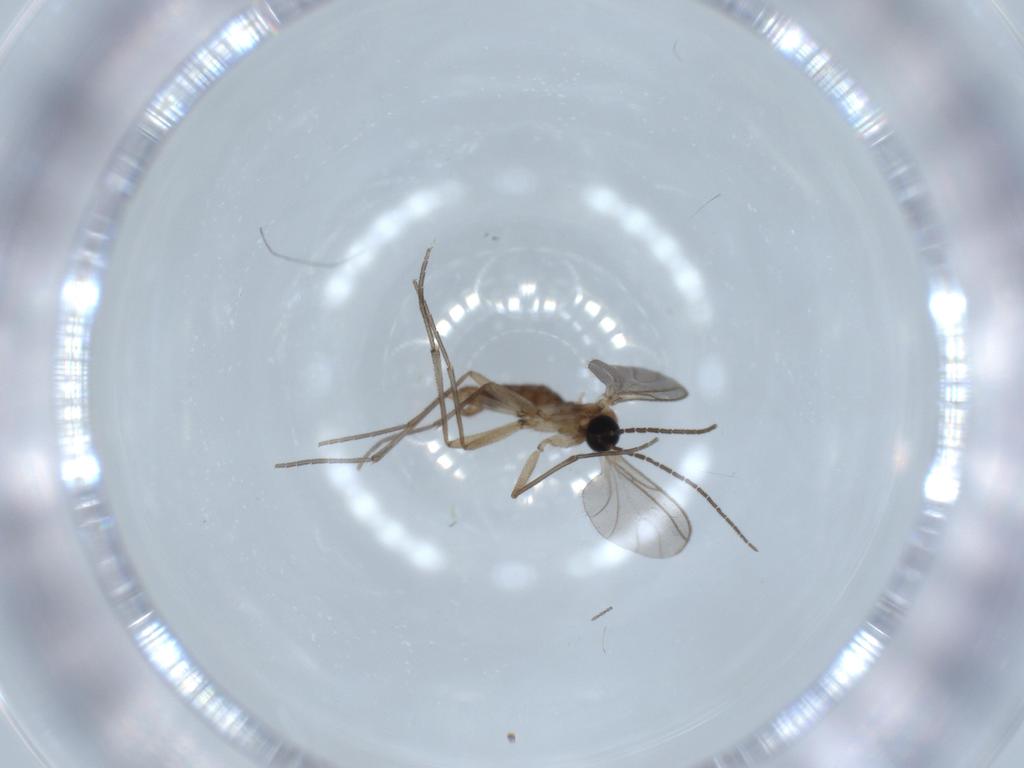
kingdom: Animalia
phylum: Arthropoda
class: Insecta
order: Diptera
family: Sciaridae
